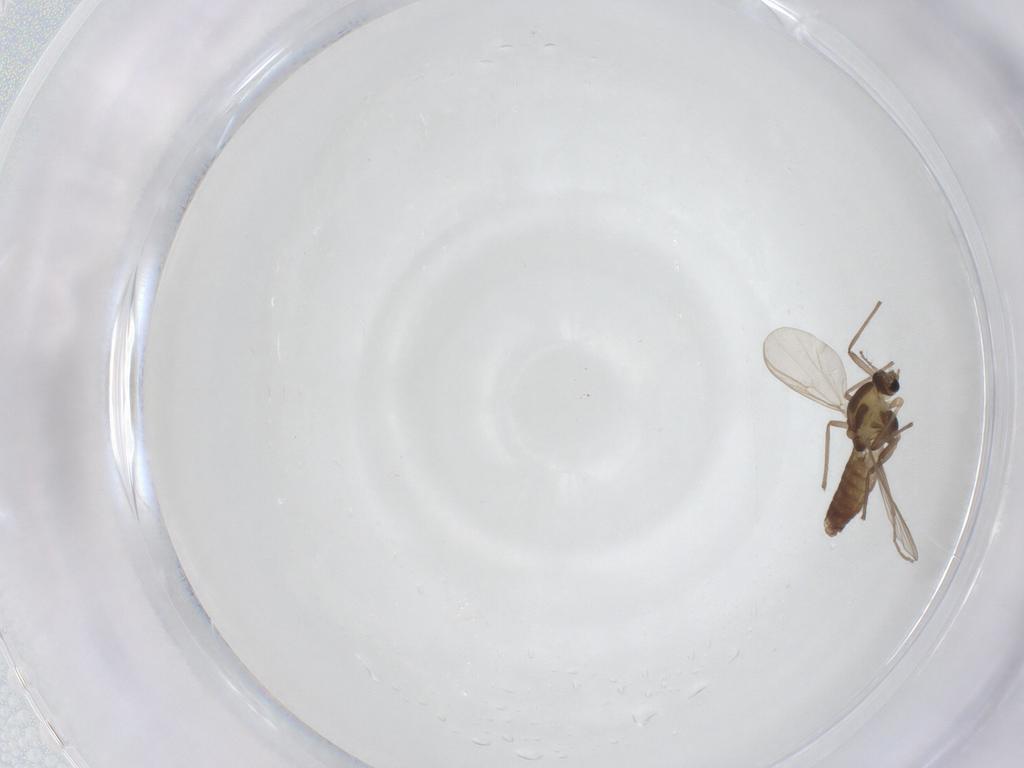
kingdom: Animalia
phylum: Arthropoda
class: Insecta
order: Diptera
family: Chironomidae
